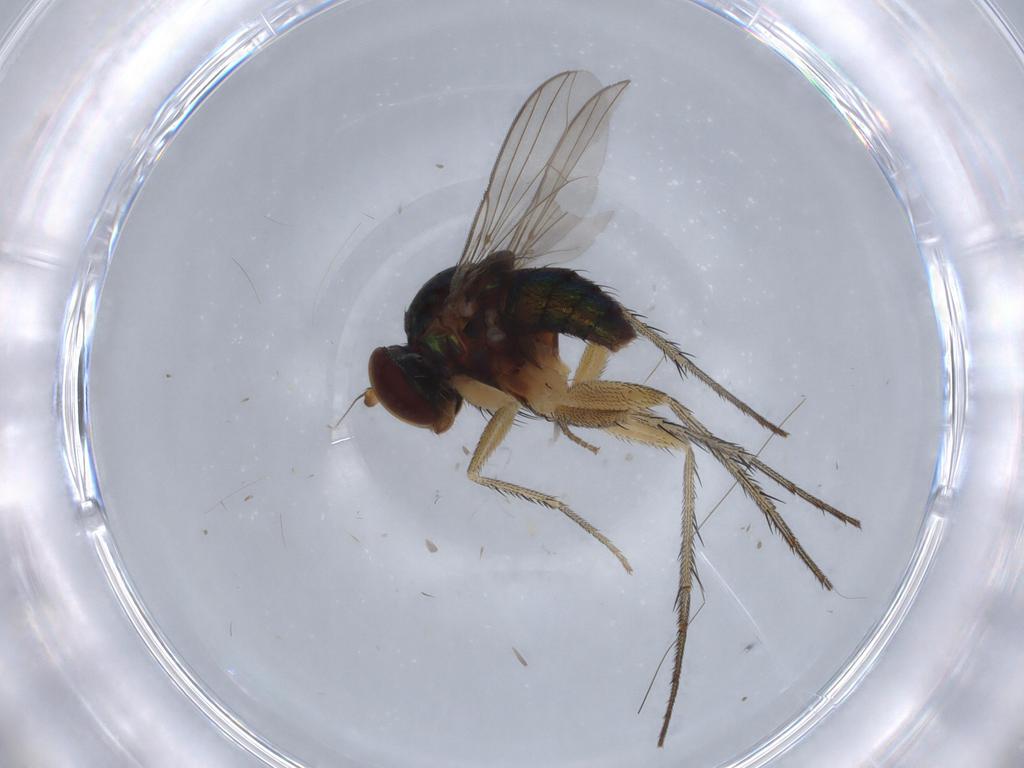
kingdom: Animalia
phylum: Arthropoda
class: Insecta
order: Diptera
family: Dolichopodidae
